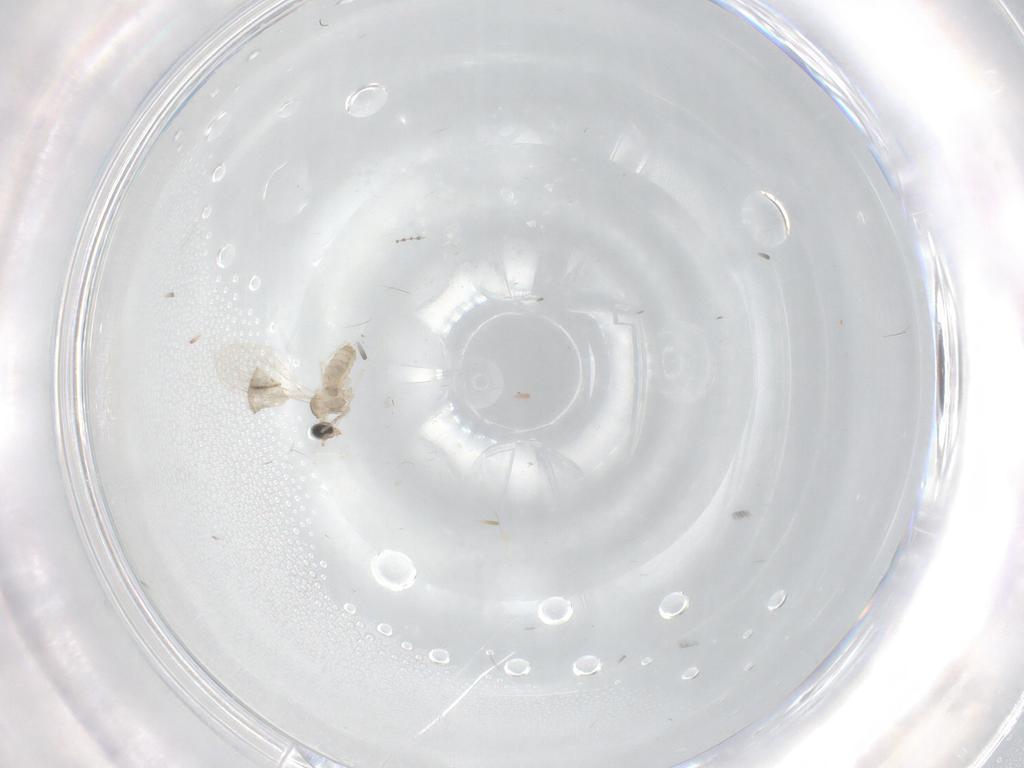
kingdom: Animalia
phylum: Arthropoda
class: Insecta
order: Diptera
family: Cecidomyiidae
